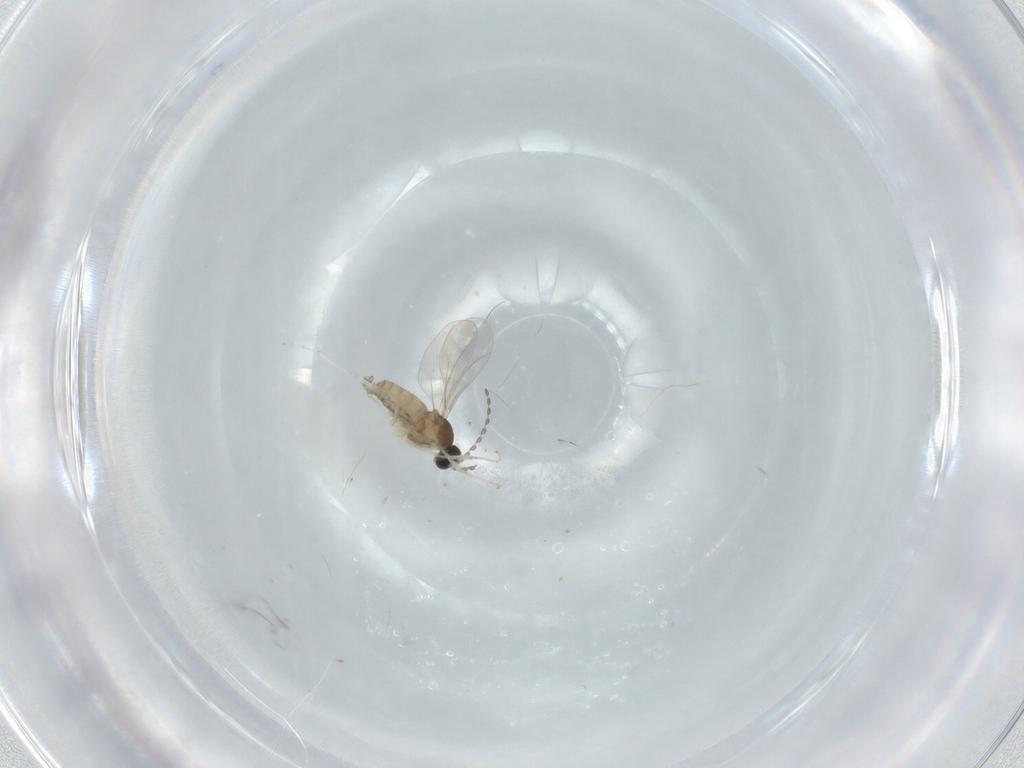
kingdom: Animalia
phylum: Arthropoda
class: Insecta
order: Diptera
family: Cecidomyiidae
